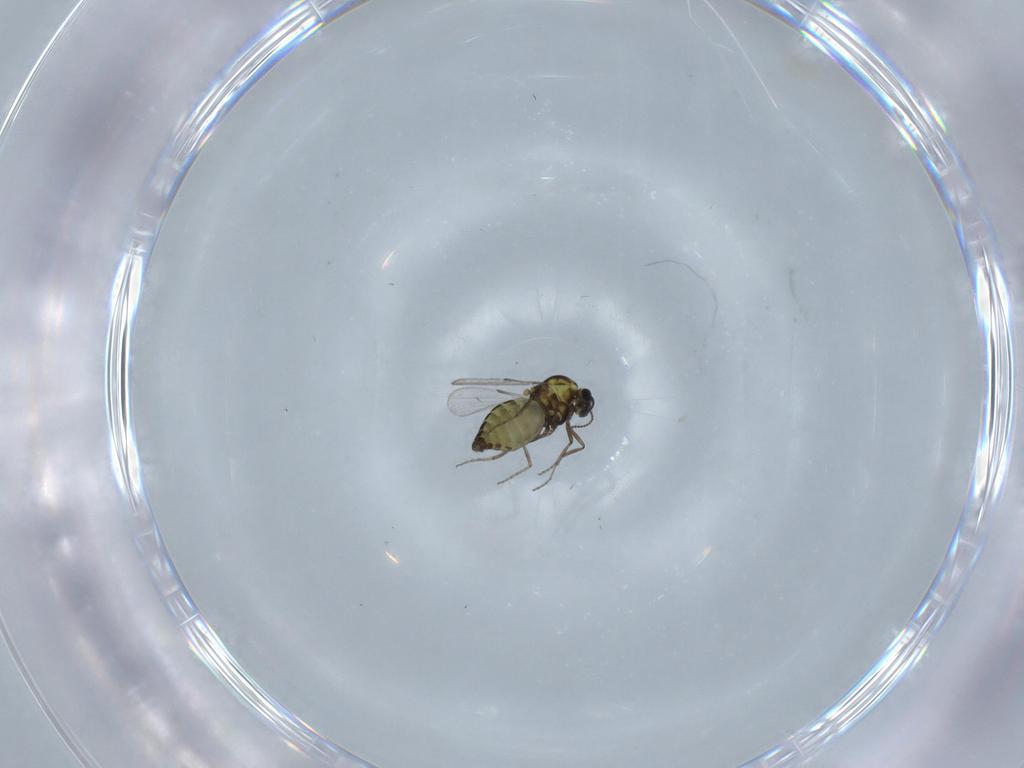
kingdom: Animalia
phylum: Arthropoda
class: Insecta
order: Diptera
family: Ceratopogonidae
